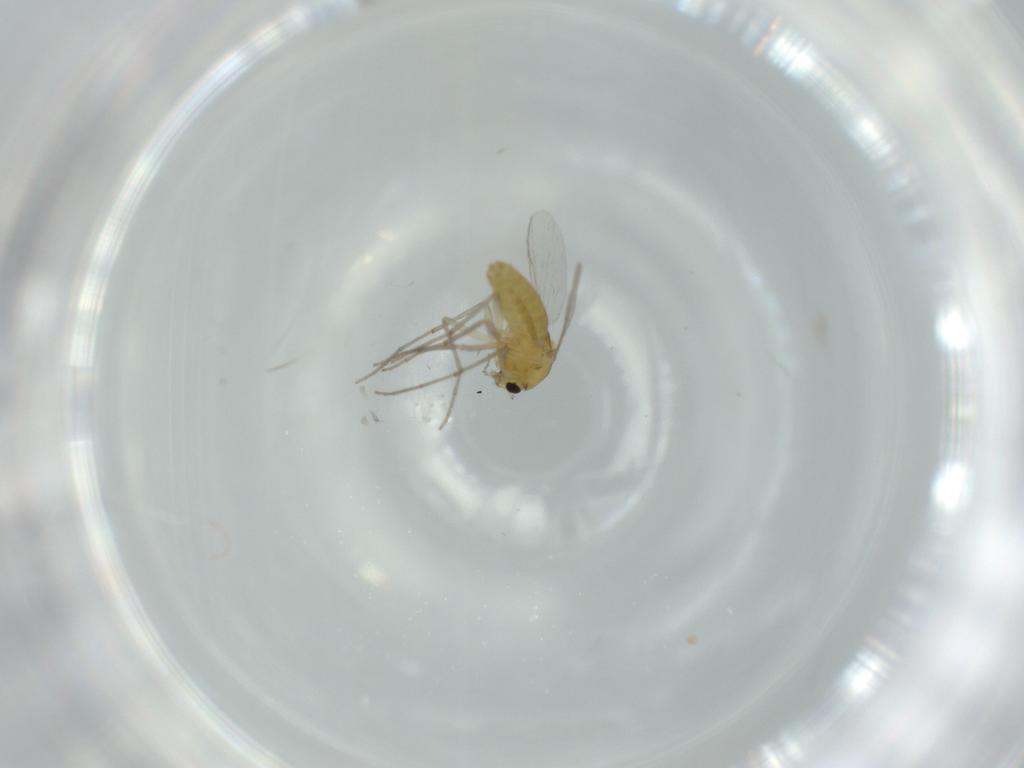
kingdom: Animalia
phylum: Arthropoda
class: Insecta
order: Diptera
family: Chironomidae
